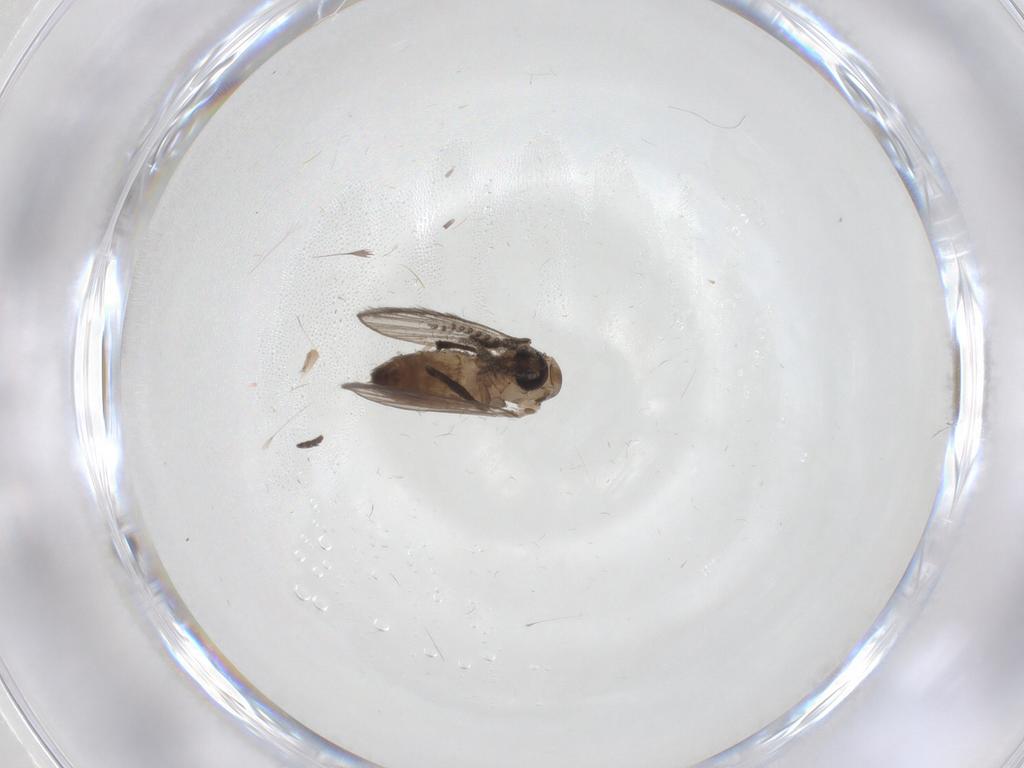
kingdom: Animalia
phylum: Arthropoda
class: Insecta
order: Diptera
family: Psychodidae
